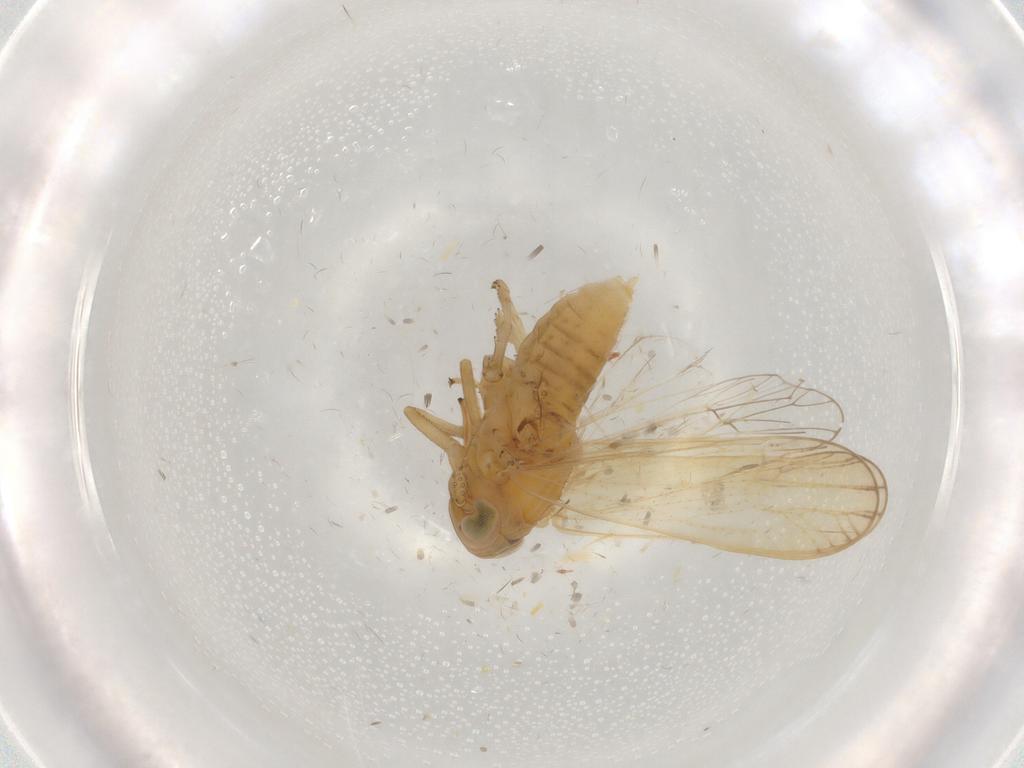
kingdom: Animalia
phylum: Arthropoda
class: Insecta
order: Hemiptera
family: Delphacidae
